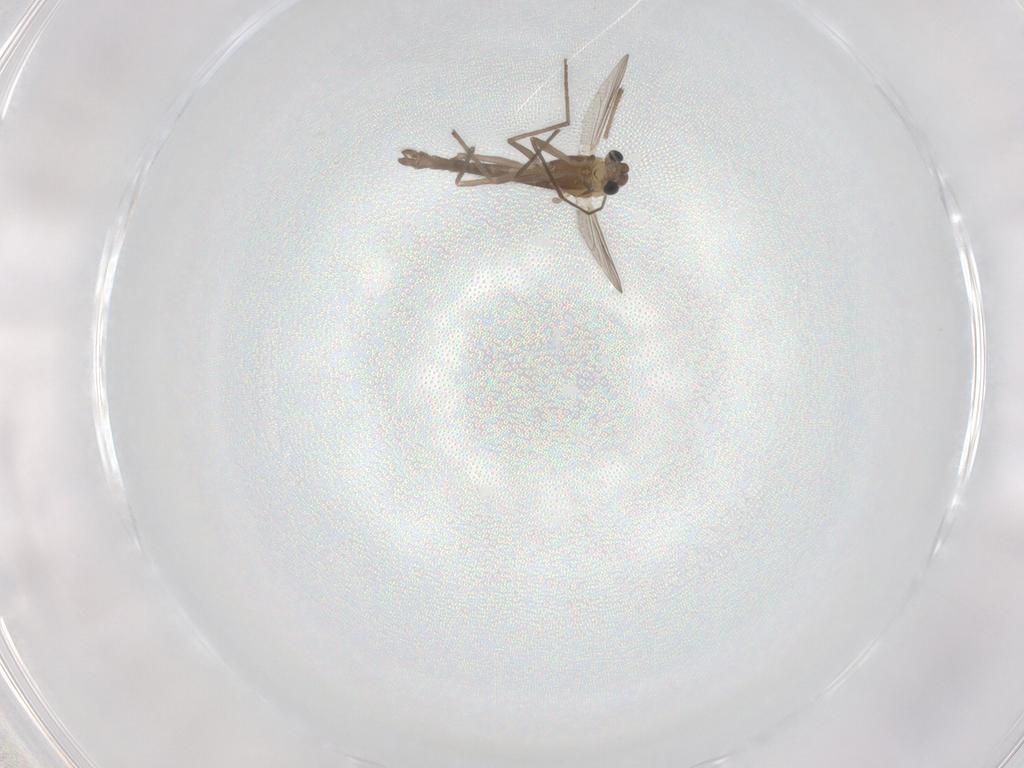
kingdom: Animalia
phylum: Arthropoda
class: Insecta
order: Diptera
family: Chironomidae
